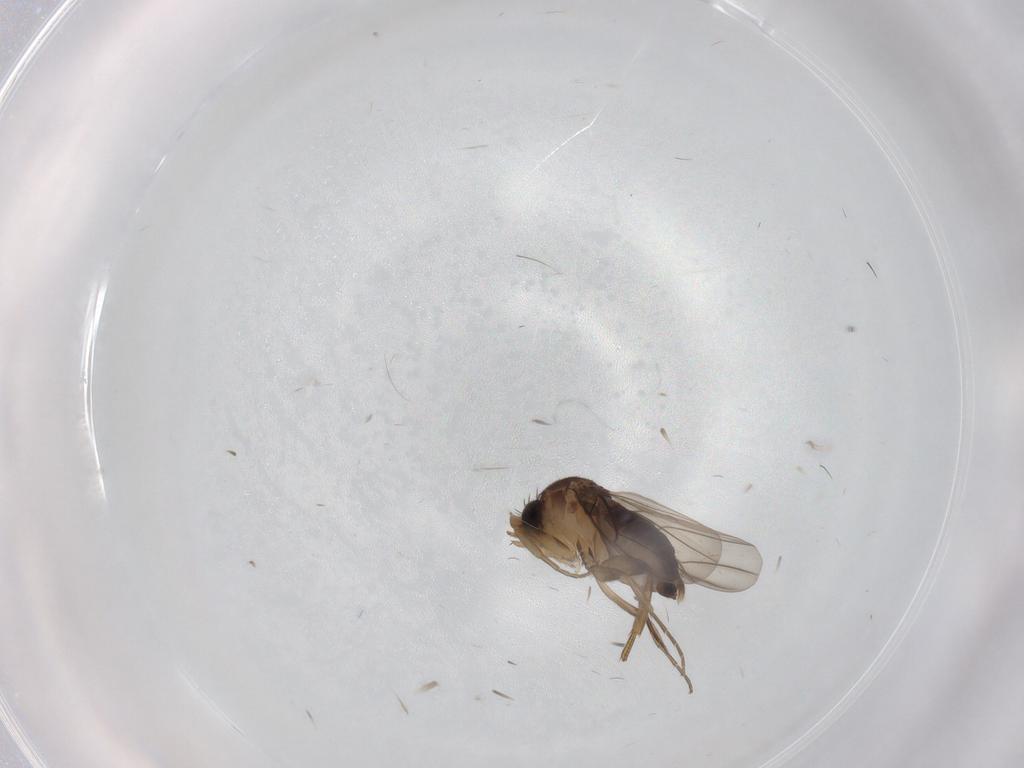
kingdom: Animalia
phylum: Arthropoda
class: Insecta
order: Diptera
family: Phoridae
